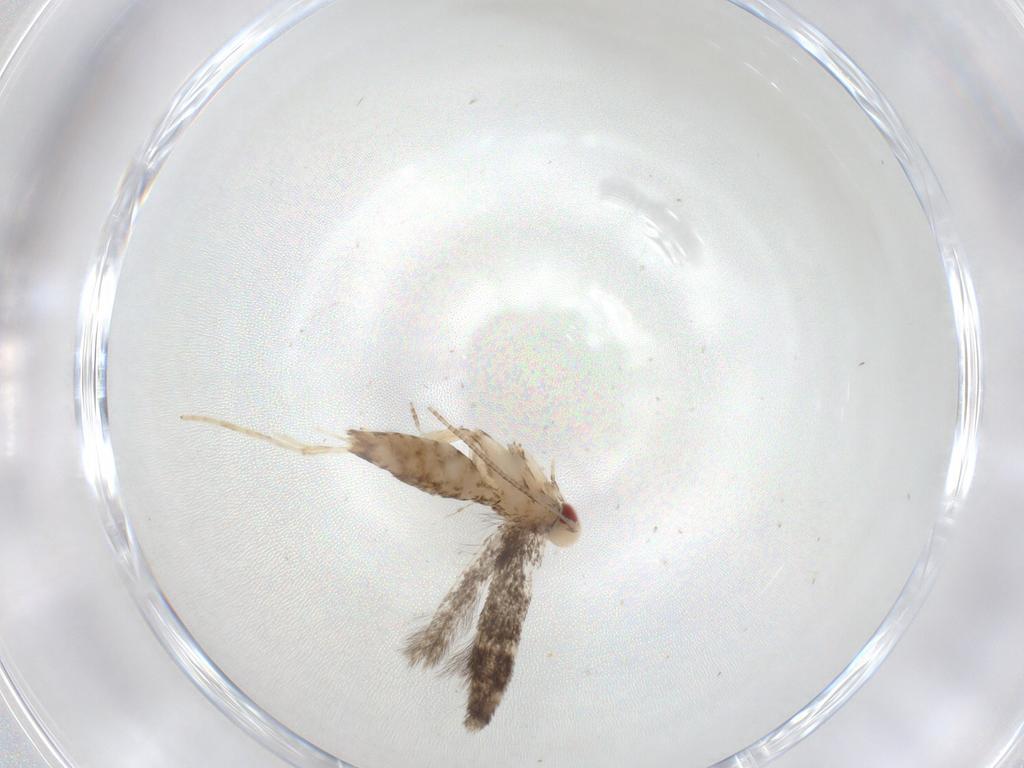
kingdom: Animalia
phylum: Arthropoda
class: Insecta
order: Lepidoptera
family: Gracillariidae
